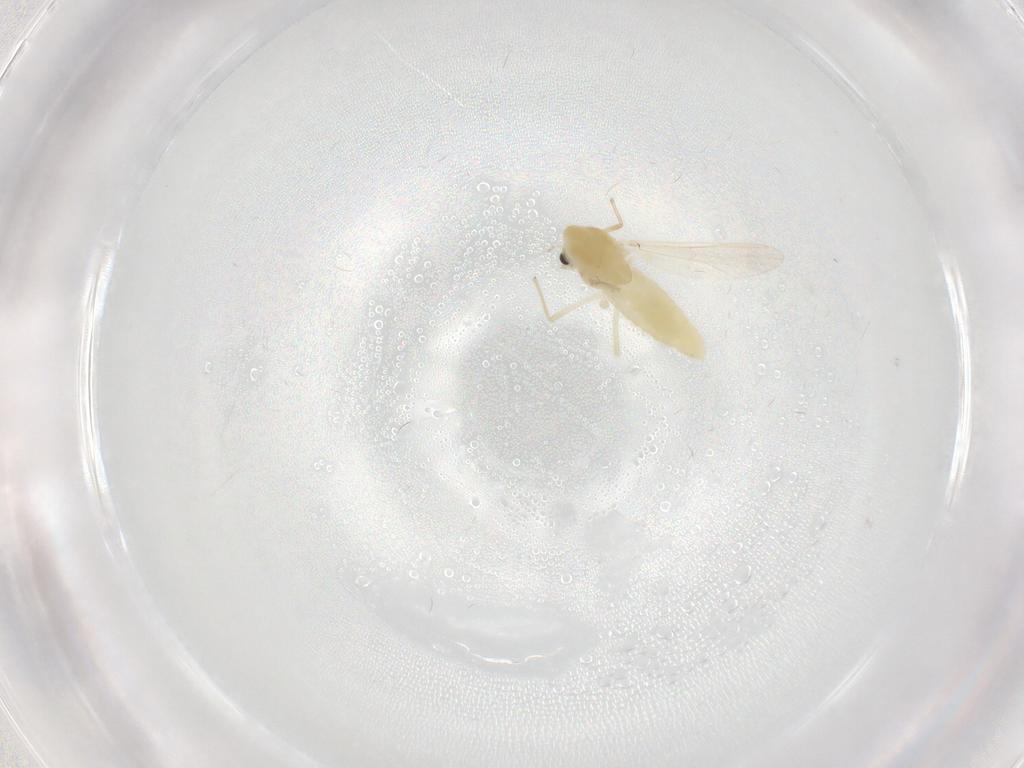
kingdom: Animalia
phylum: Arthropoda
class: Insecta
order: Diptera
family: Chironomidae
